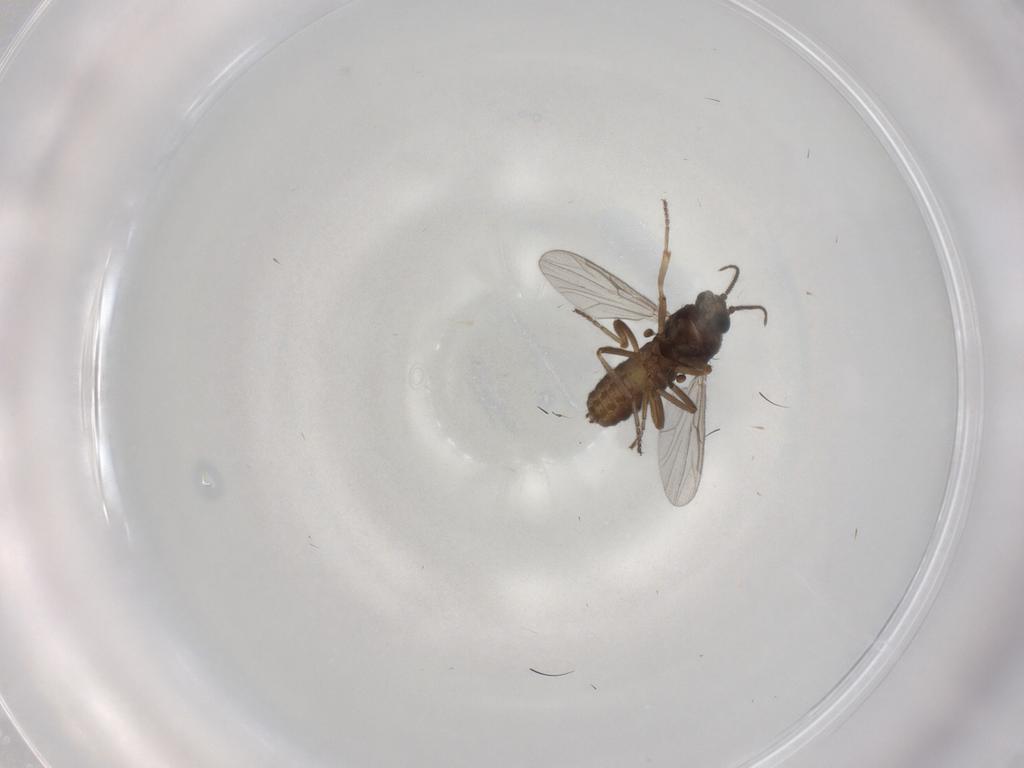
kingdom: Animalia
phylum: Arthropoda
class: Insecta
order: Diptera
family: Ceratopogonidae
